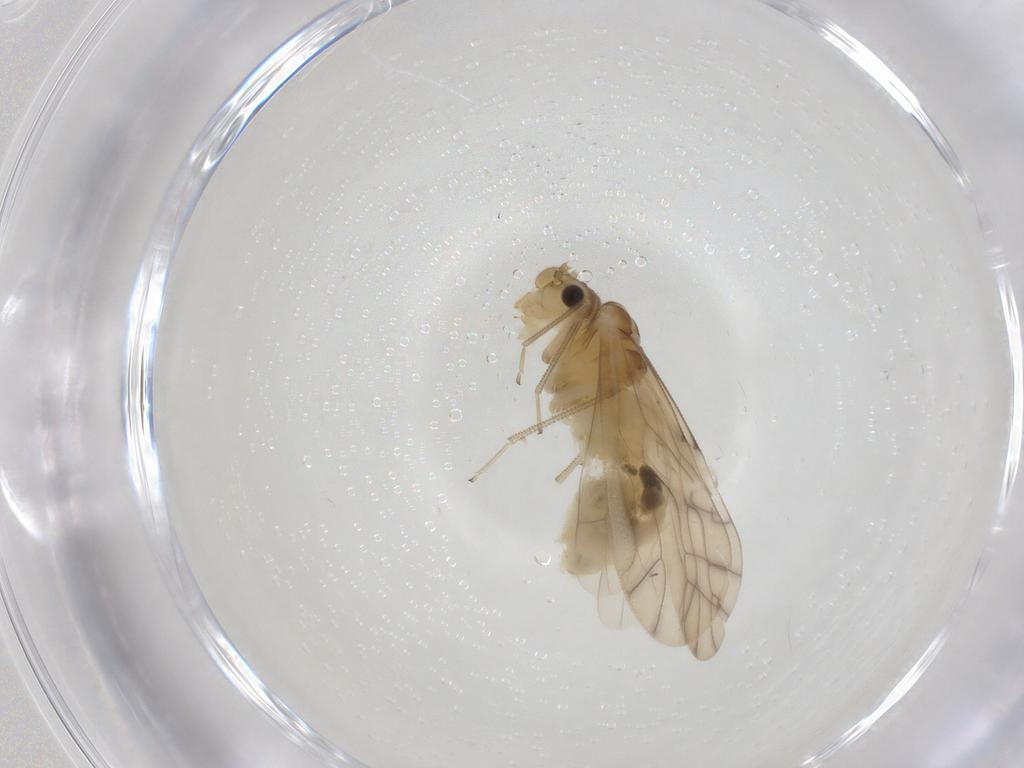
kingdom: Animalia
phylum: Arthropoda
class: Insecta
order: Psocodea
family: Caeciliusidae
